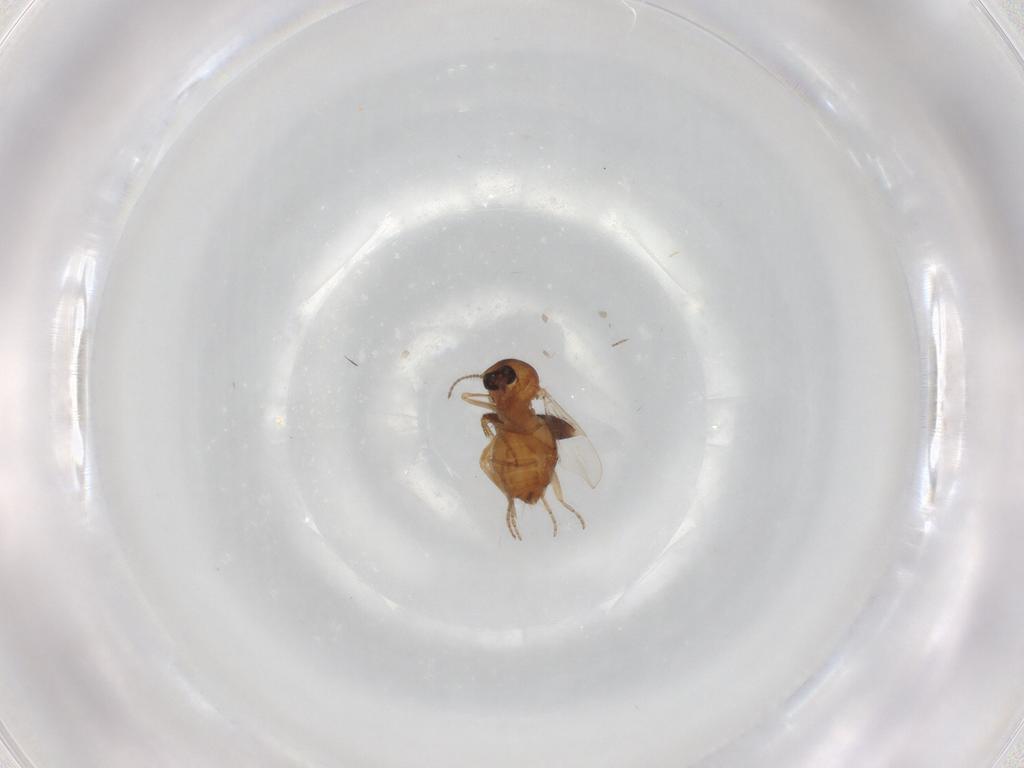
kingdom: Animalia
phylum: Arthropoda
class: Insecta
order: Diptera
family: Ceratopogonidae
